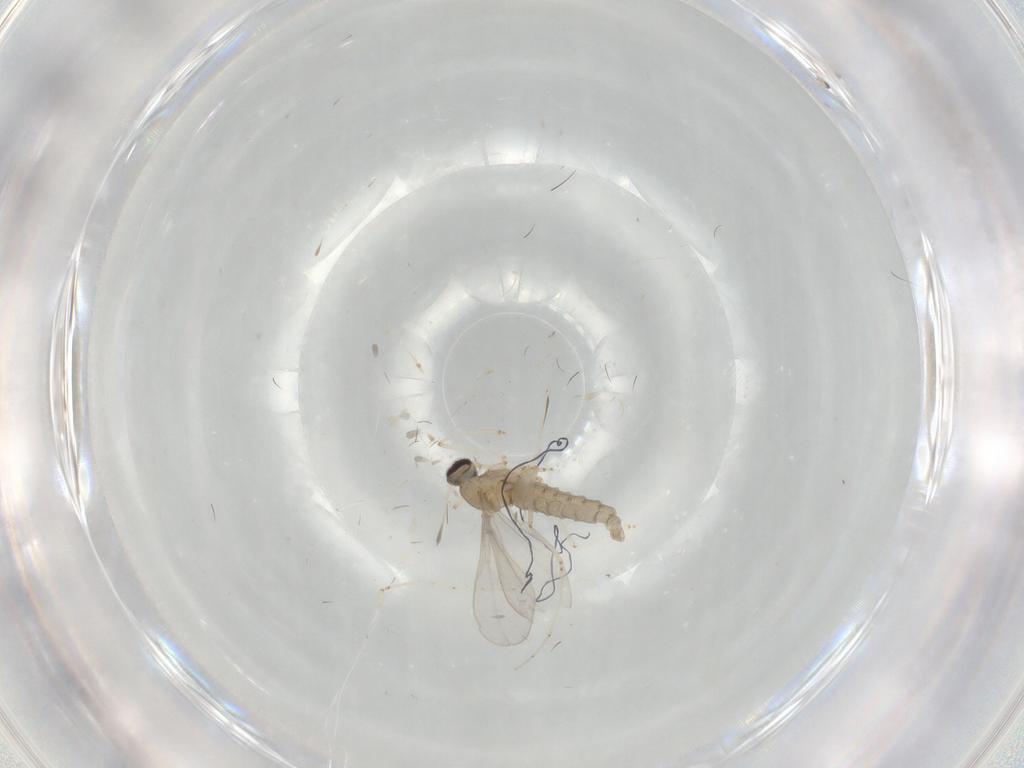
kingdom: Animalia
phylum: Arthropoda
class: Insecta
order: Diptera
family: Cecidomyiidae
